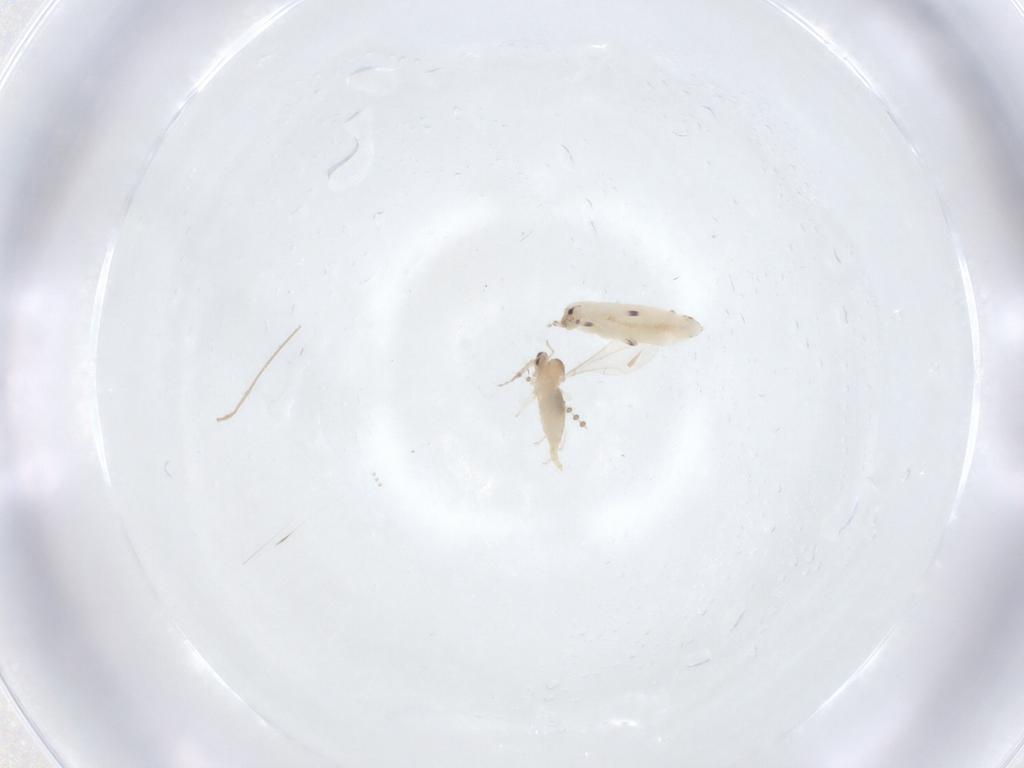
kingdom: Animalia
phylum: Arthropoda
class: Insecta
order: Diptera
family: Cecidomyiidae
